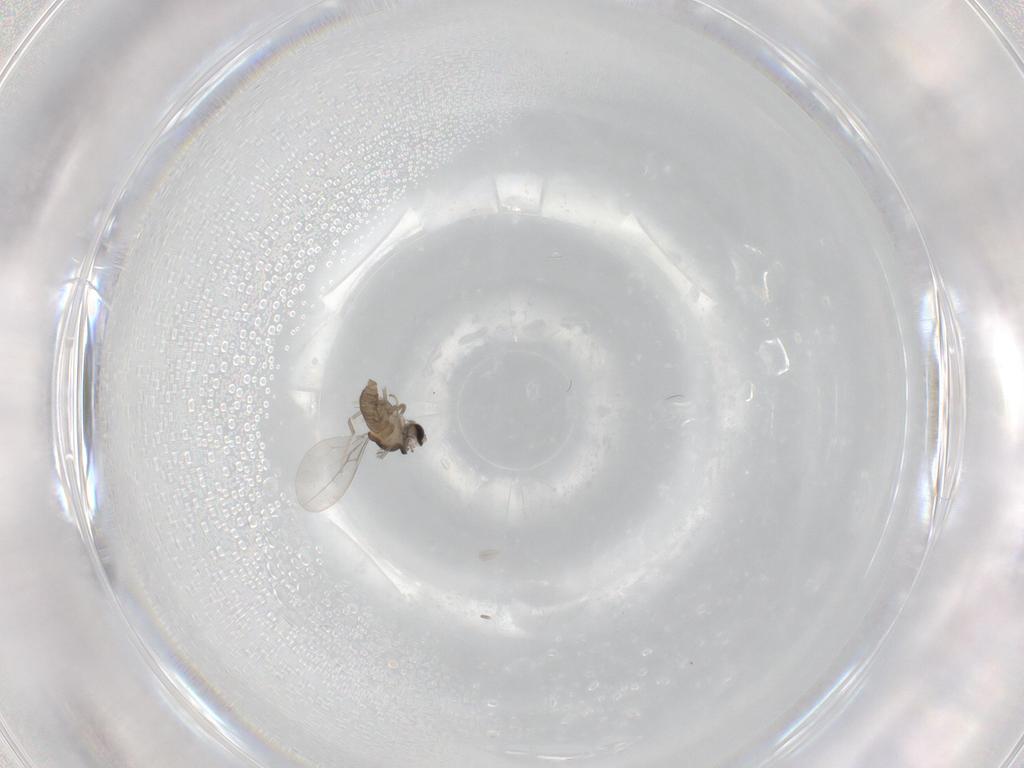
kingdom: Animalia
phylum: Arthropoda
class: Insecta
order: Diptera
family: Cecidomyiidae
